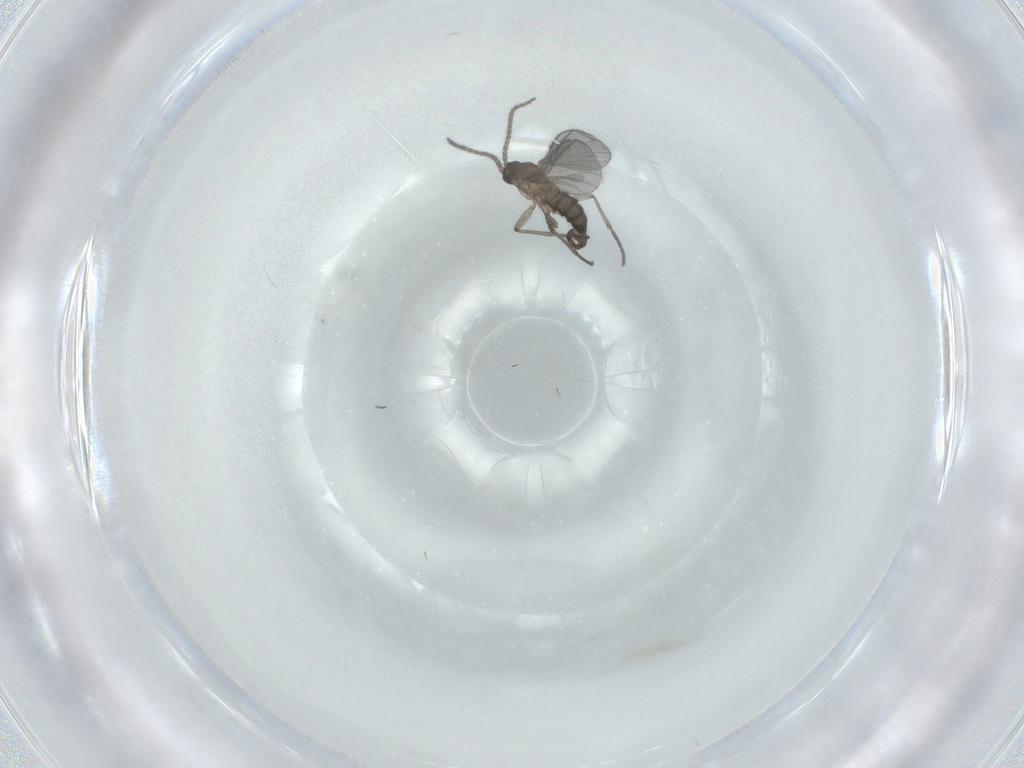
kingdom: Animalia
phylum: Arthropoda
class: Insecta
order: Diptera
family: Sciaridae
